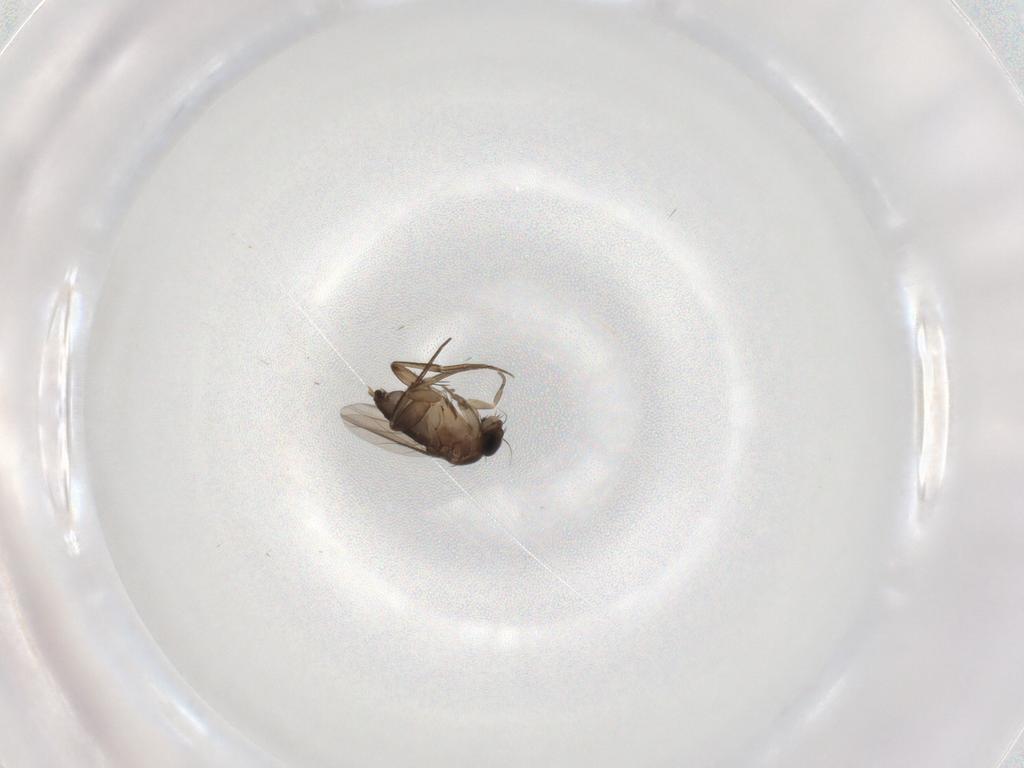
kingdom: Animalia
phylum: Arthropoda
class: Insecta
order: Diptera
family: Phoridae
